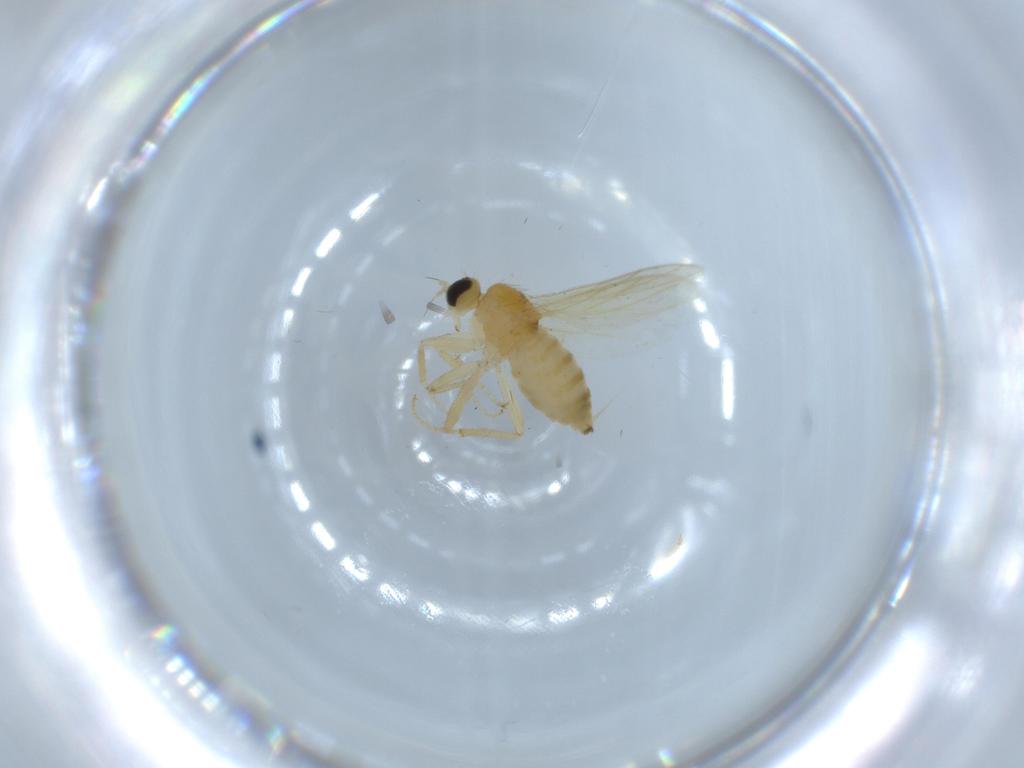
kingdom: Animalia
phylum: Arthropoda
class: Insecta
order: Diptera
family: Hybotidae
